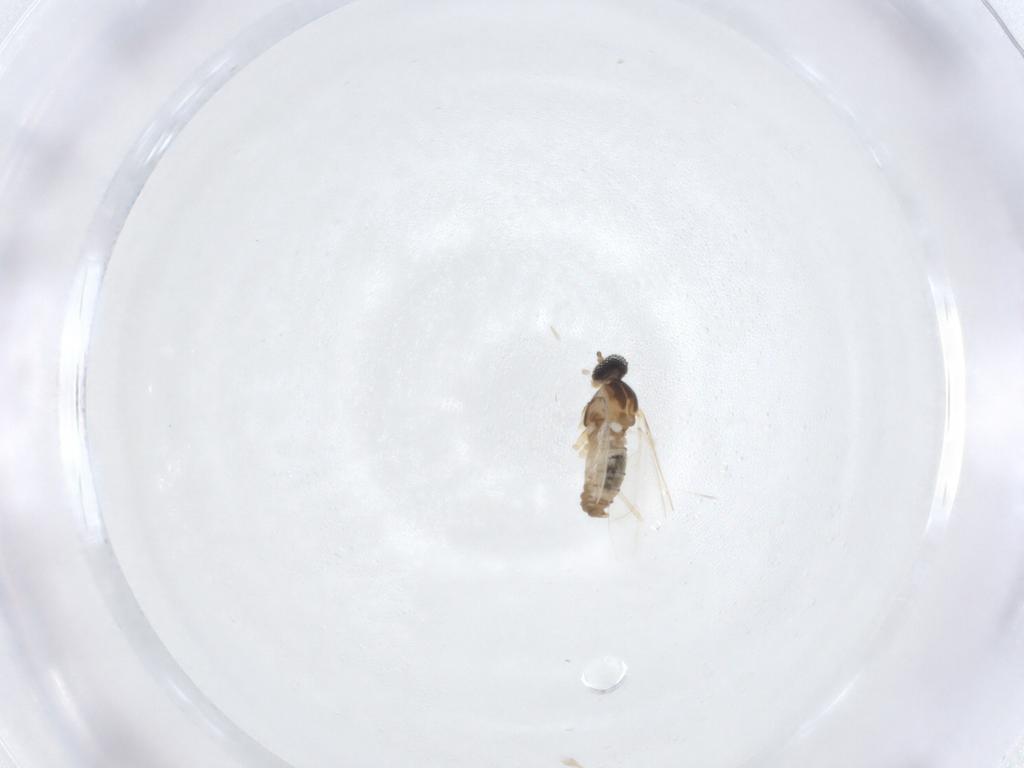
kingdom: Animalia
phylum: Arthropoda
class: Insecta
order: Diptera
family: Cecidomyiidae
